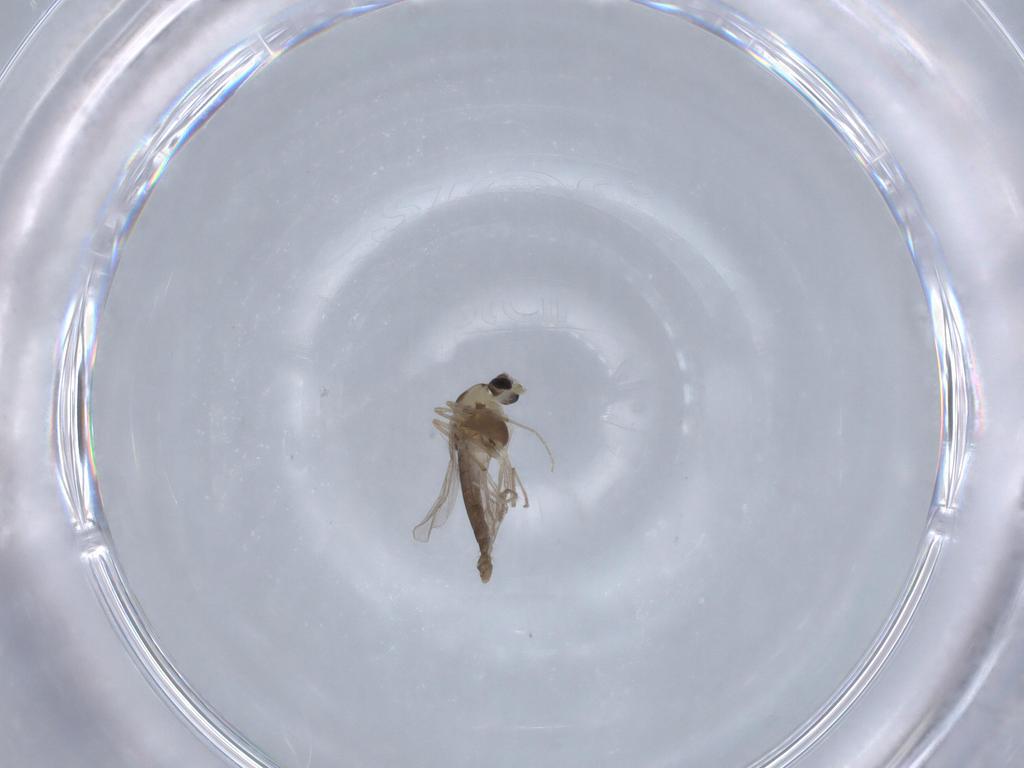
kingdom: Animalia
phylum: Arthropoda
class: Insecta
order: Diptera
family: Chironomidae
